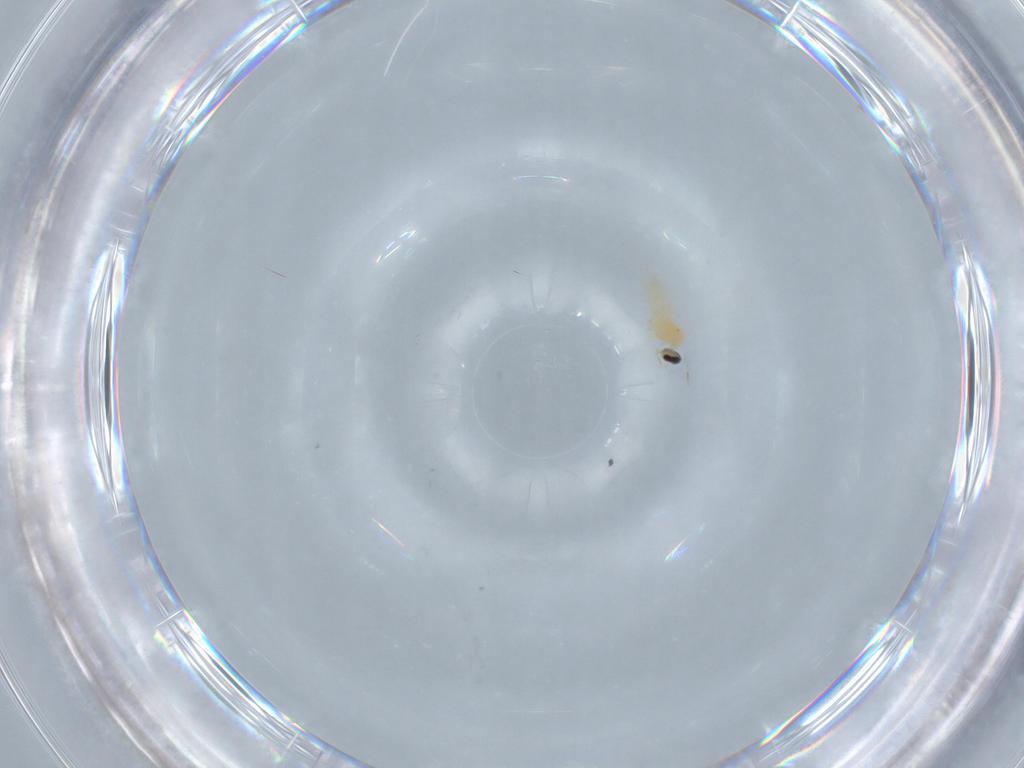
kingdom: Animalia
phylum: Arthropoda
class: Insecta
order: Diptera
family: Cecidomyiidae
